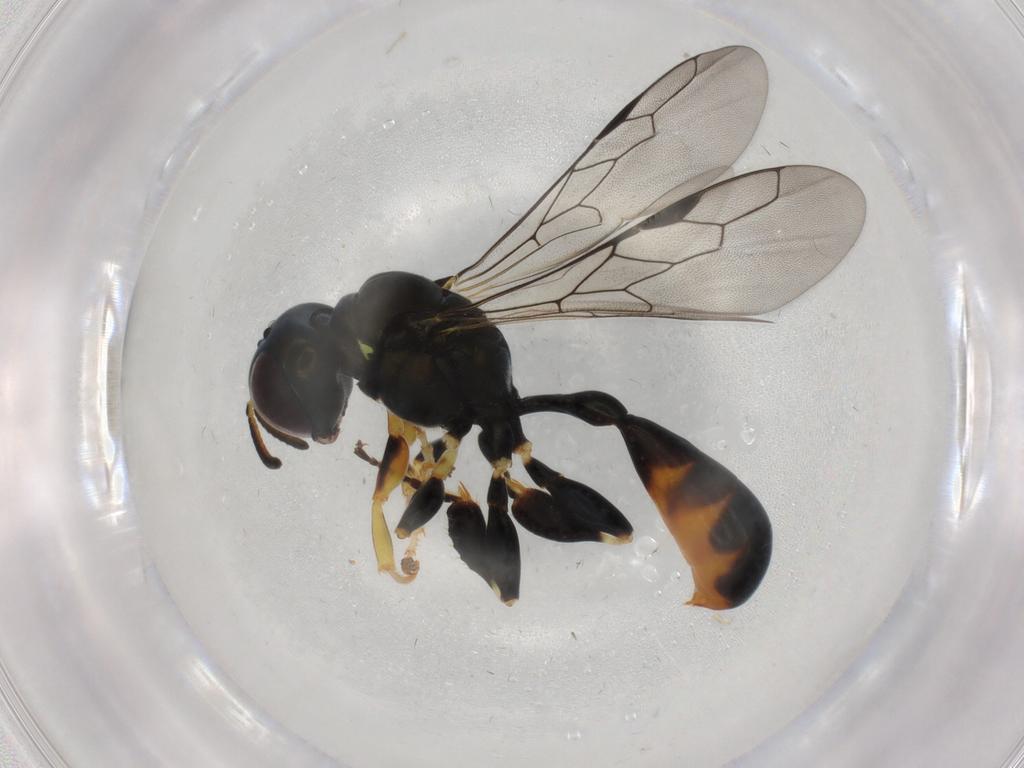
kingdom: Animalia
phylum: Arthropoda
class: Insecta
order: Hymenoptera
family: Crabronidae
